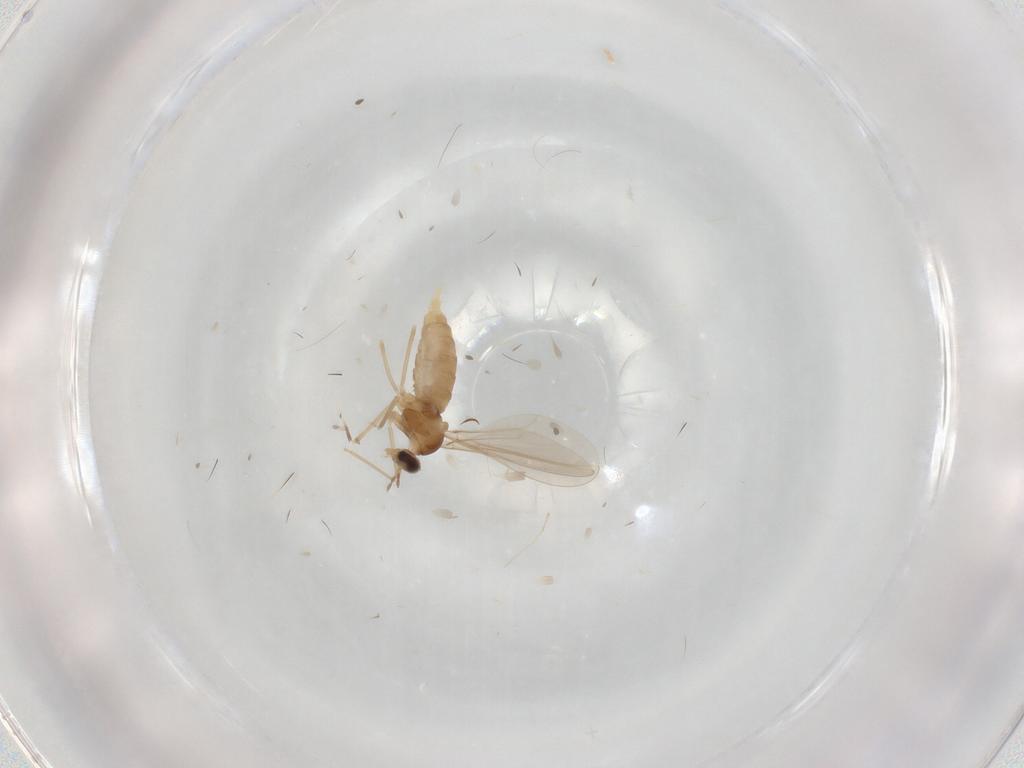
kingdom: Animalia
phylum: Arthropoda
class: Insecta
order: Diptera
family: Cecidomyiidae
